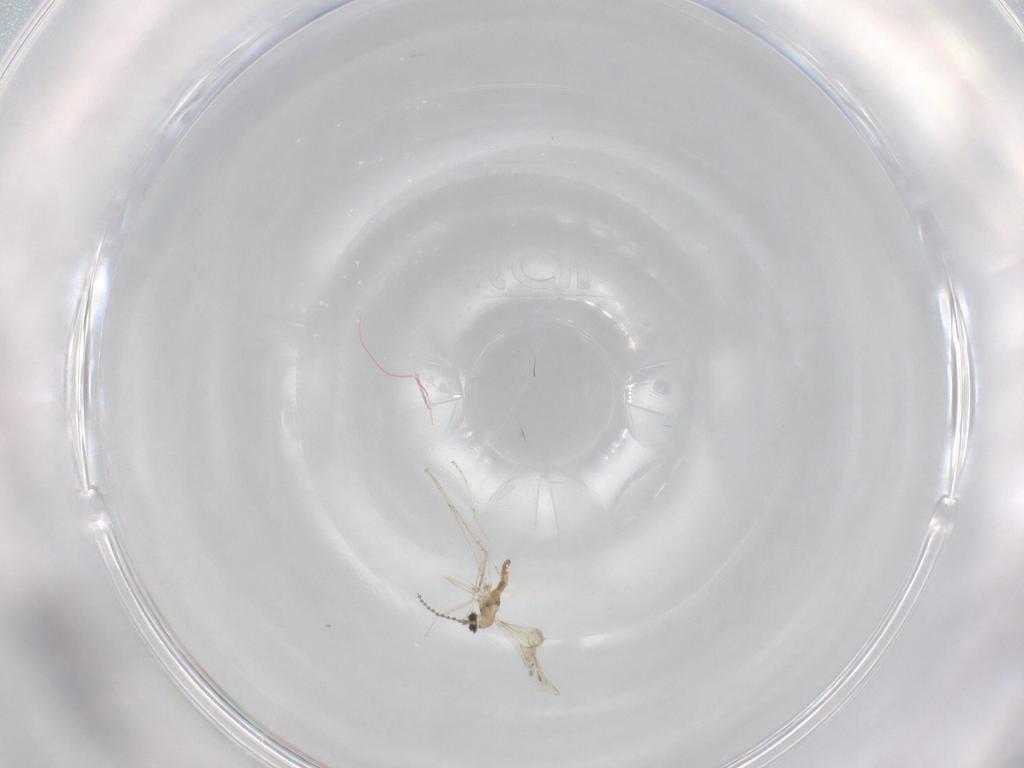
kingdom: Animalia
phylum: Arthropoda
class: Insecta
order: Diptera
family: Cecidomyiidae
